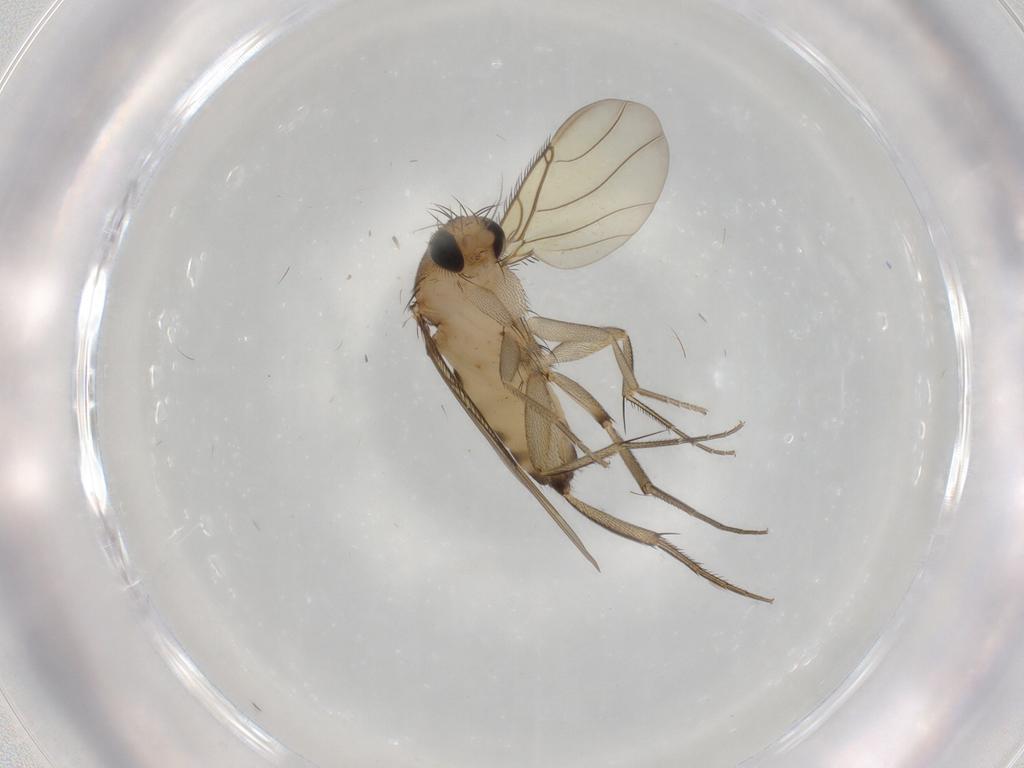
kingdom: Animalia
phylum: Arthropoda
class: Insecta
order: Diptera
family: Phoridae
